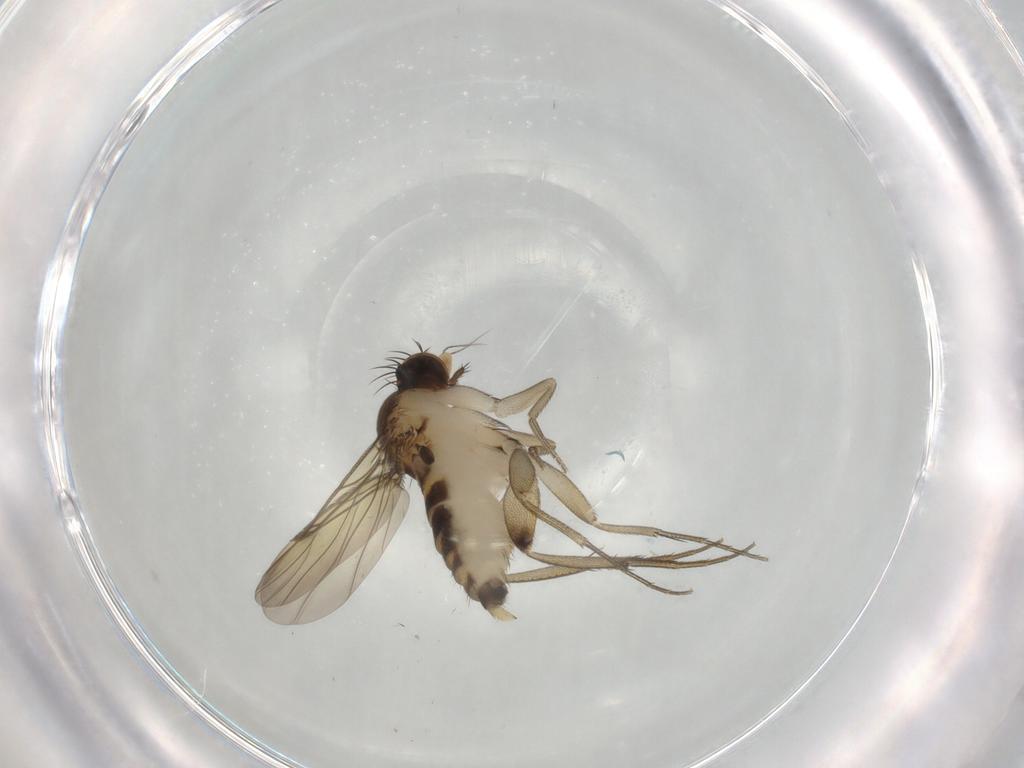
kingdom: Animalia
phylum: Arthropoda
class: Insecta
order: Diptera
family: Phoridae
